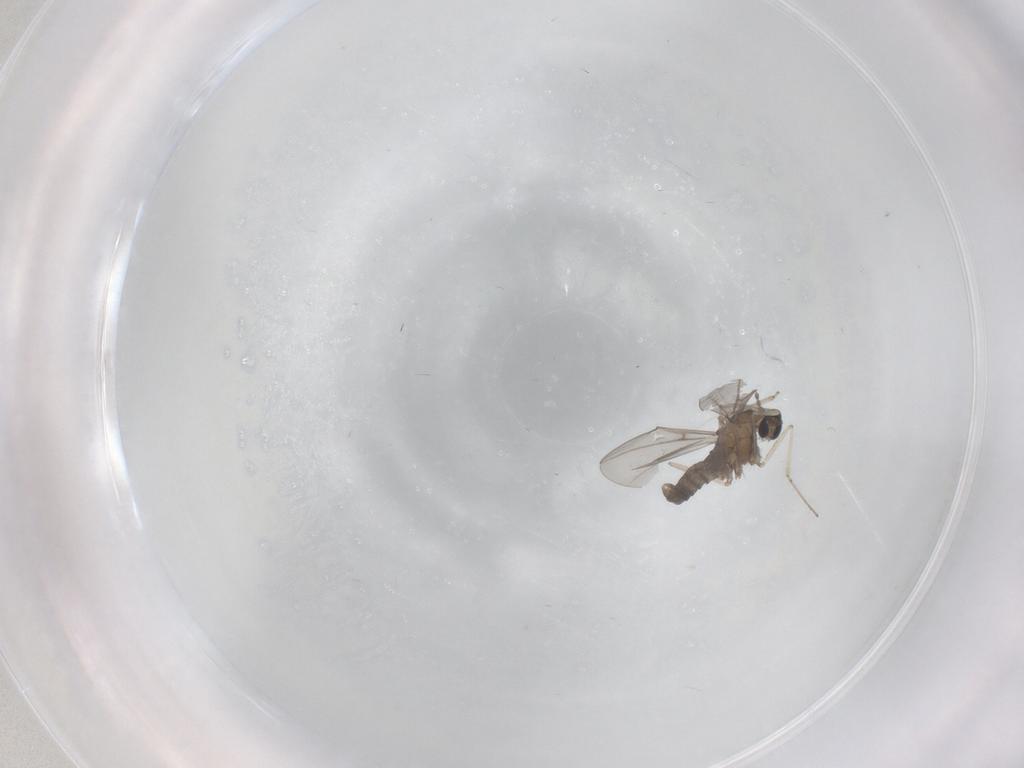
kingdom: Animalia
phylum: Arthropoda
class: Insecta
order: Diptera
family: Cecidomyiidae
